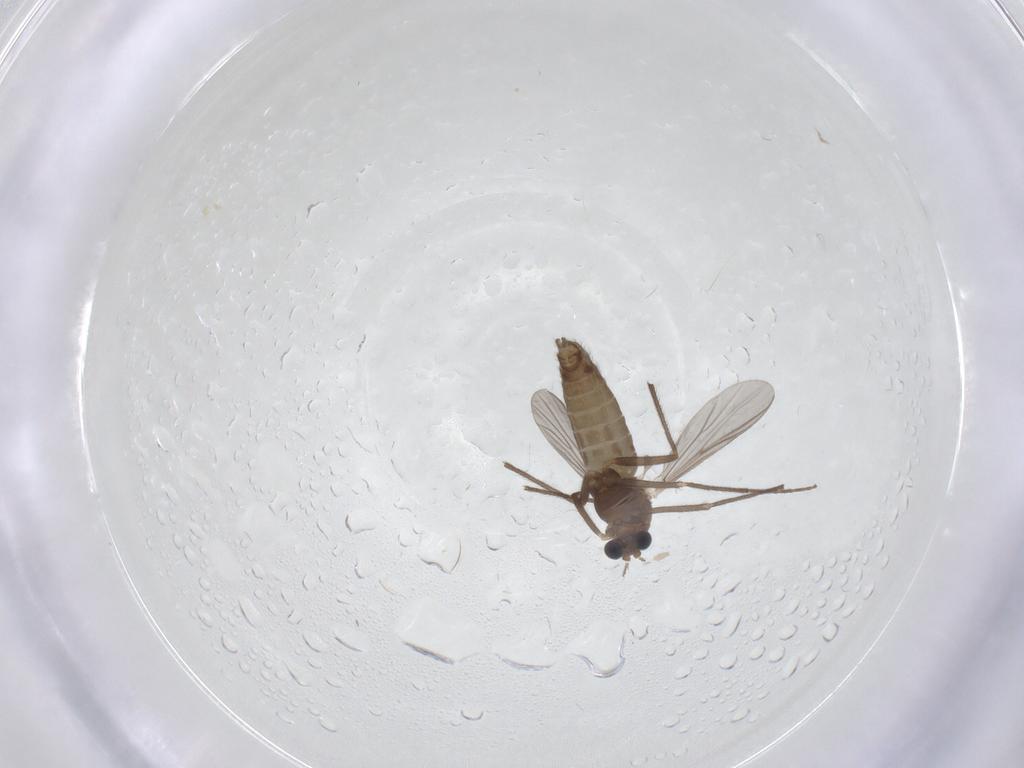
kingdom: Animalia
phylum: Arthropoda
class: Insecta
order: Diptera
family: Chironomidae
